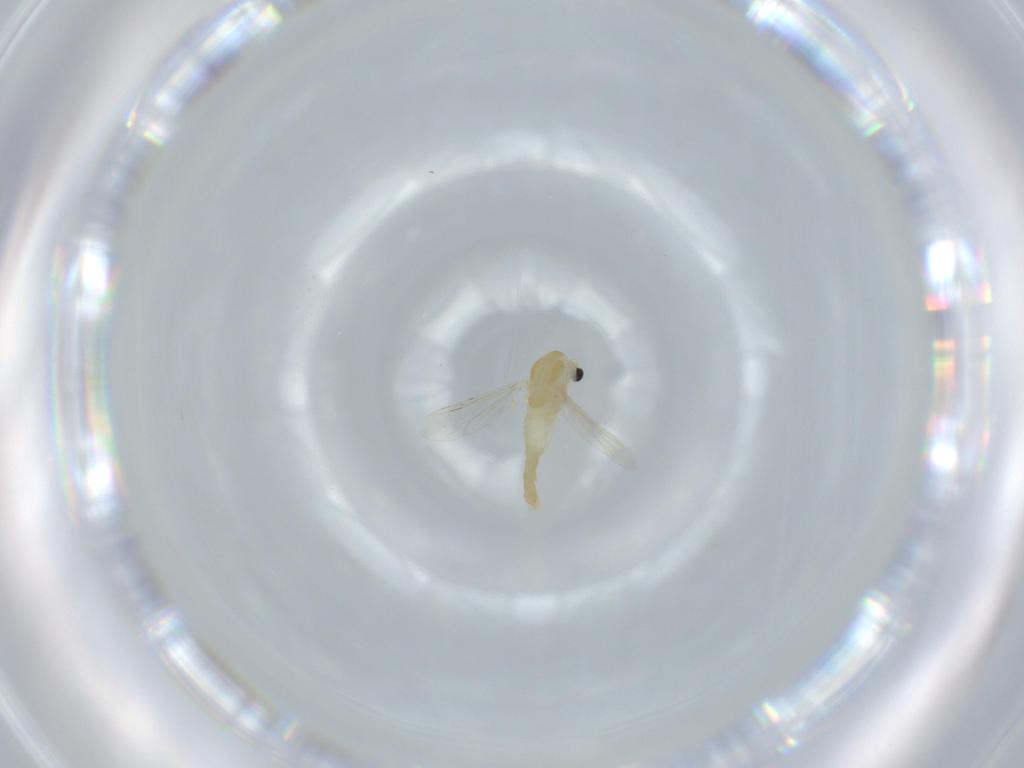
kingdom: Animalia
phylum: Arthropoda
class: Insecta
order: Diptera
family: Chironomidae
